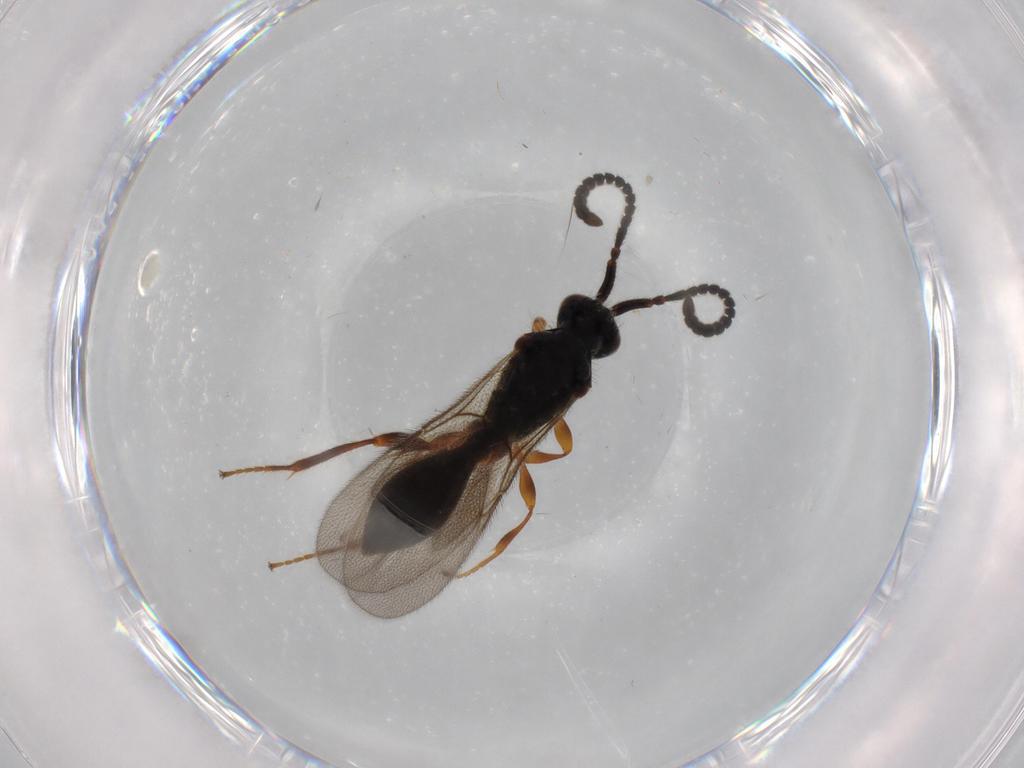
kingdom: Animalia
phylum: Arthropoda
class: Insecta
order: Hymenoptera
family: Diapriidae
